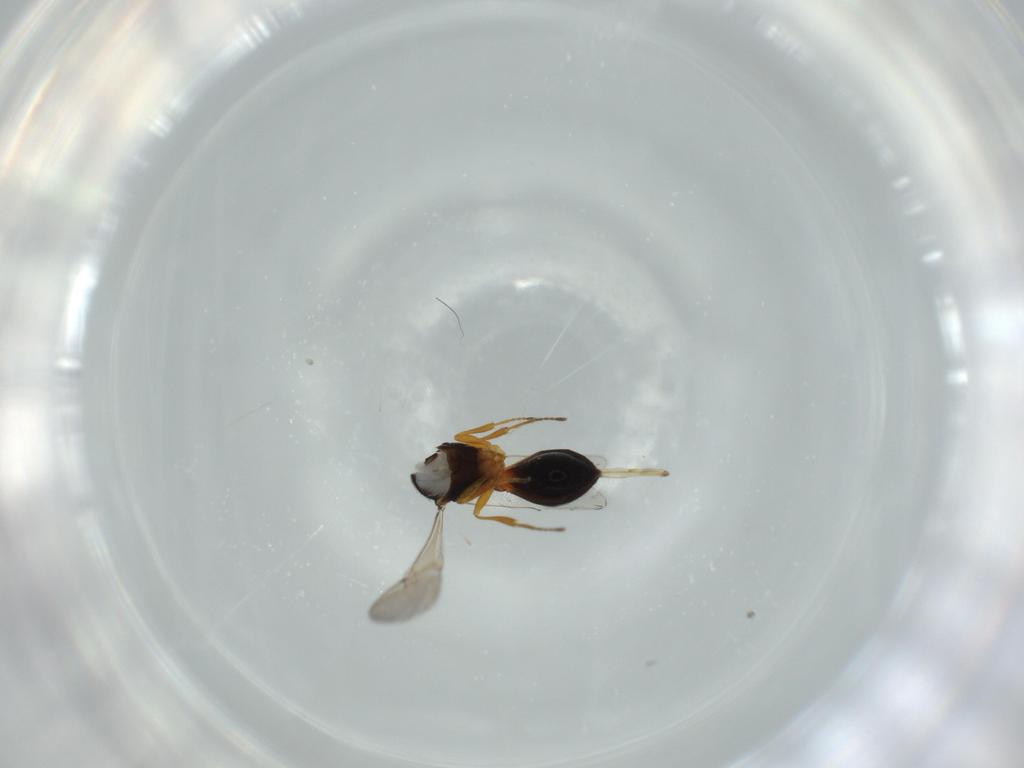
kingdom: Animalia
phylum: Arthropoda
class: Insecta
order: Hymenoptera
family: Scelionidae
